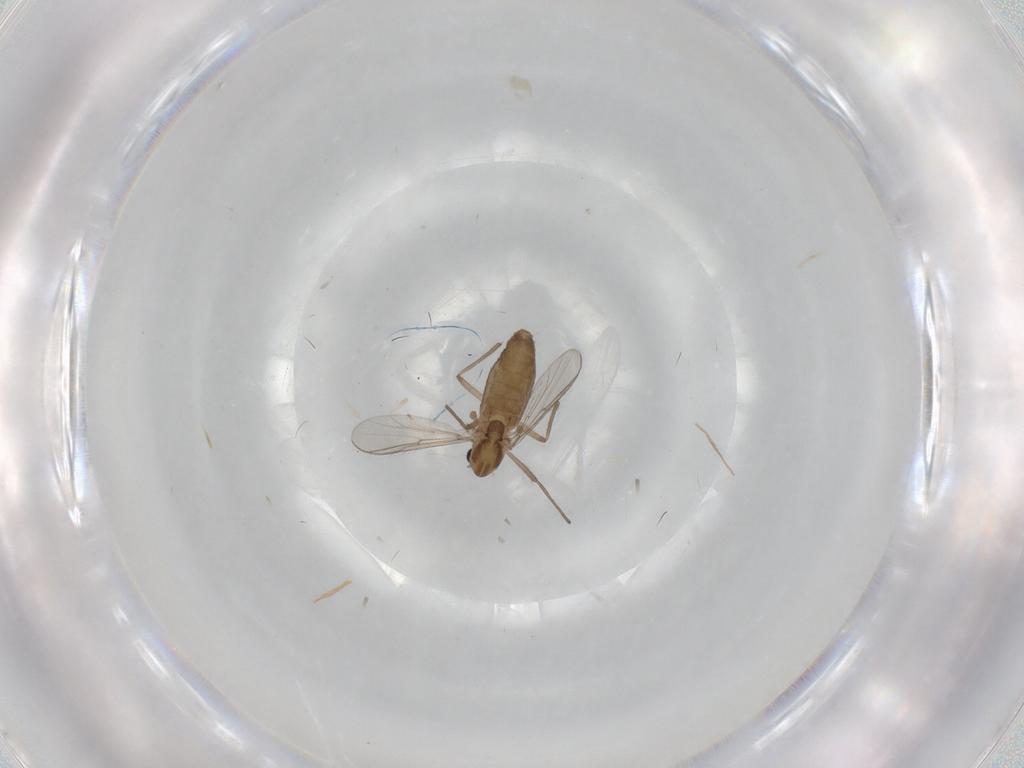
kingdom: Animalia
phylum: Arthropoda
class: Insecta
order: Diptera
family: Chironomidae
